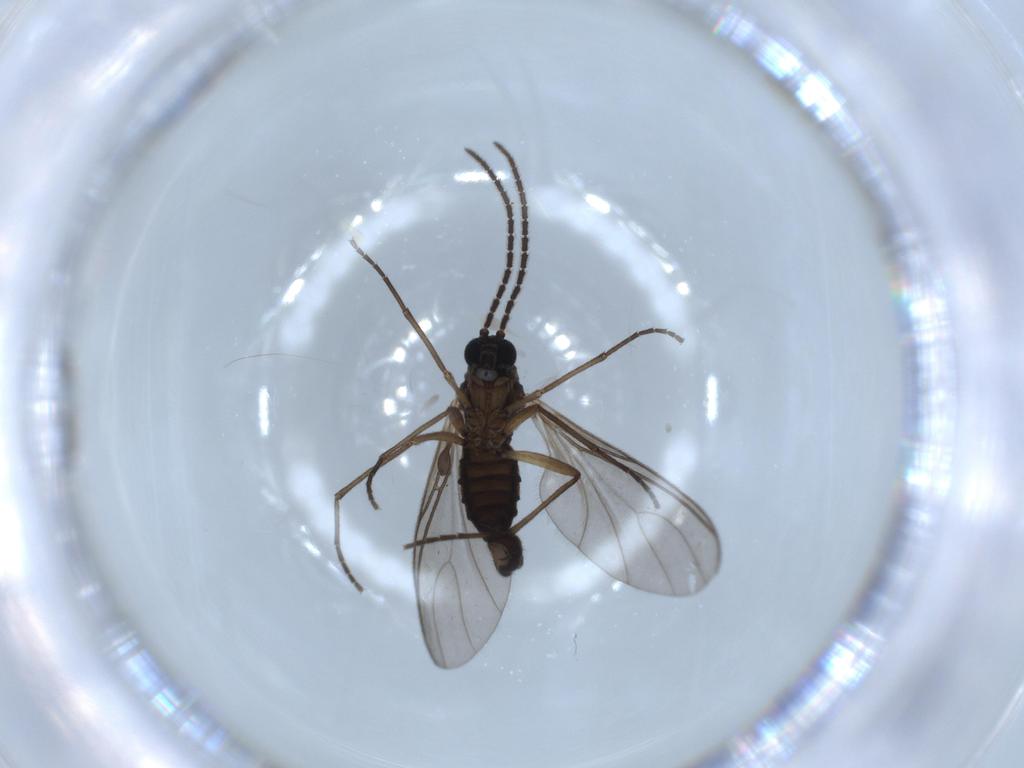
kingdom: Animalia
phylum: Arthropoda
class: Insecta
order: Diptera
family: Sciaridae
